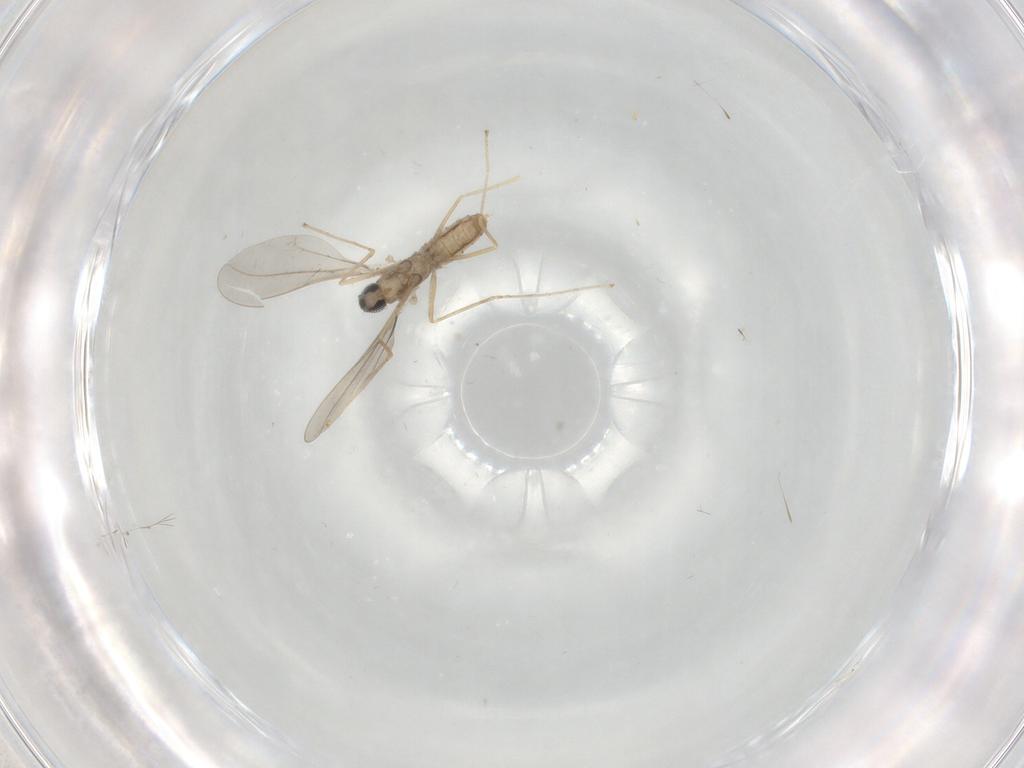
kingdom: Animalia
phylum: Arthropoda
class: Insecta
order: Diptera
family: Cecidomyiidae
